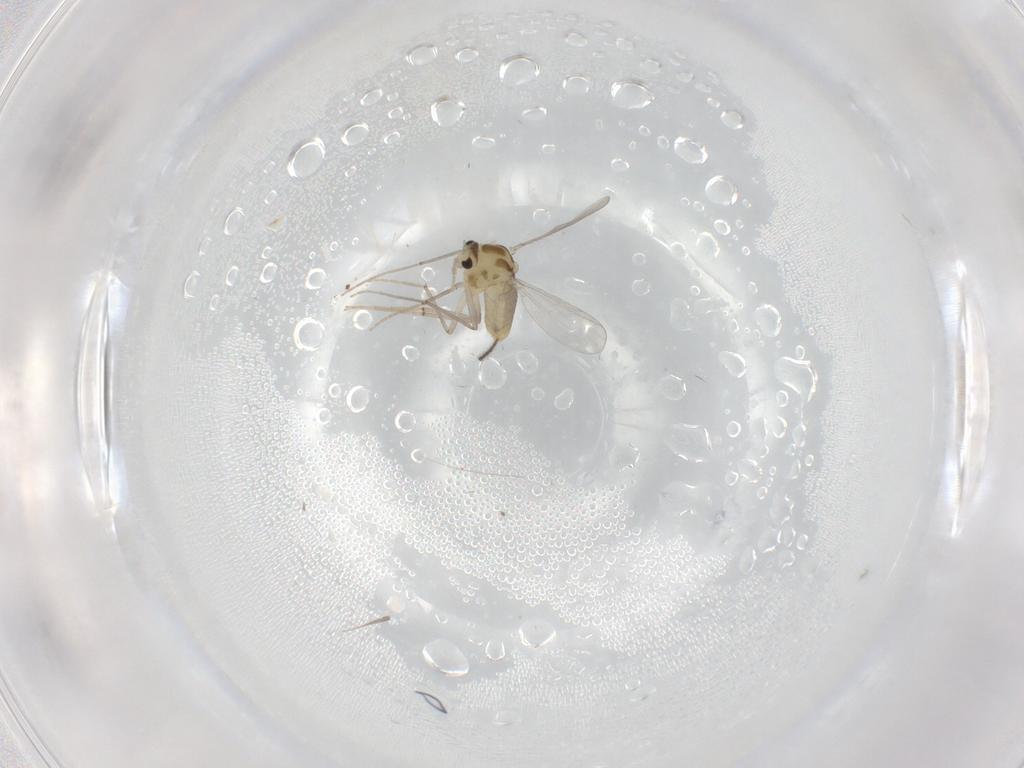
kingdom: Animalia
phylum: Arthropoda
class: Insecta
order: Diptera
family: Chironomidae
